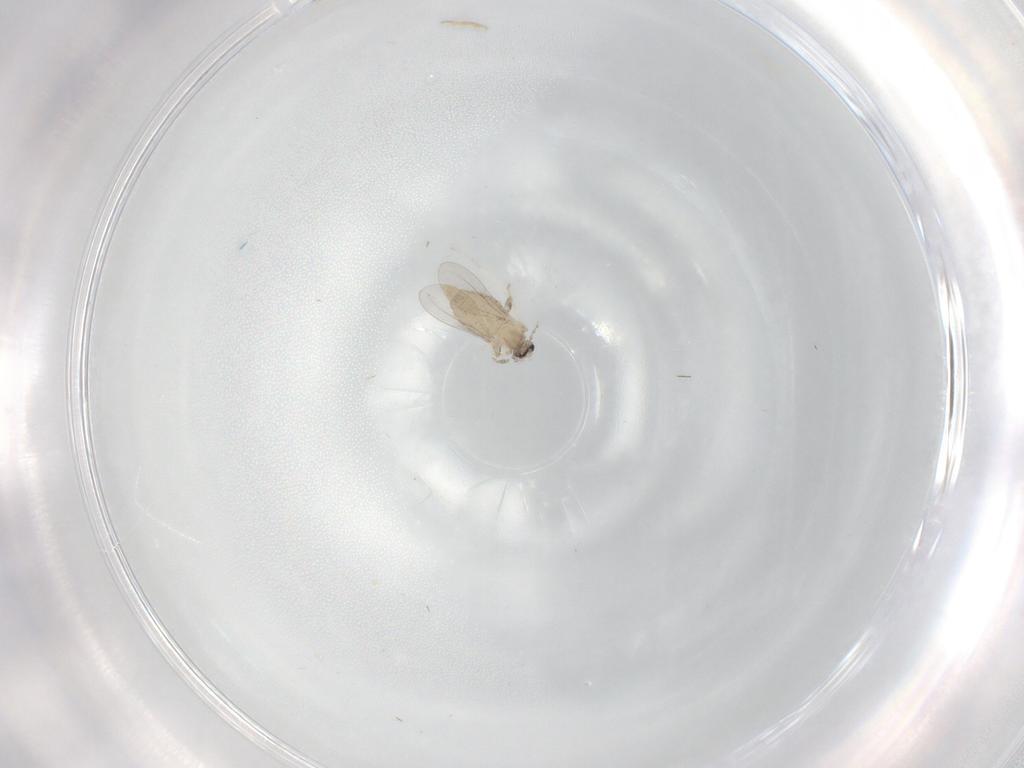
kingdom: Animalia
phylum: Arthropoda
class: Insecta
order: Diptera
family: Cecidomyiidae
